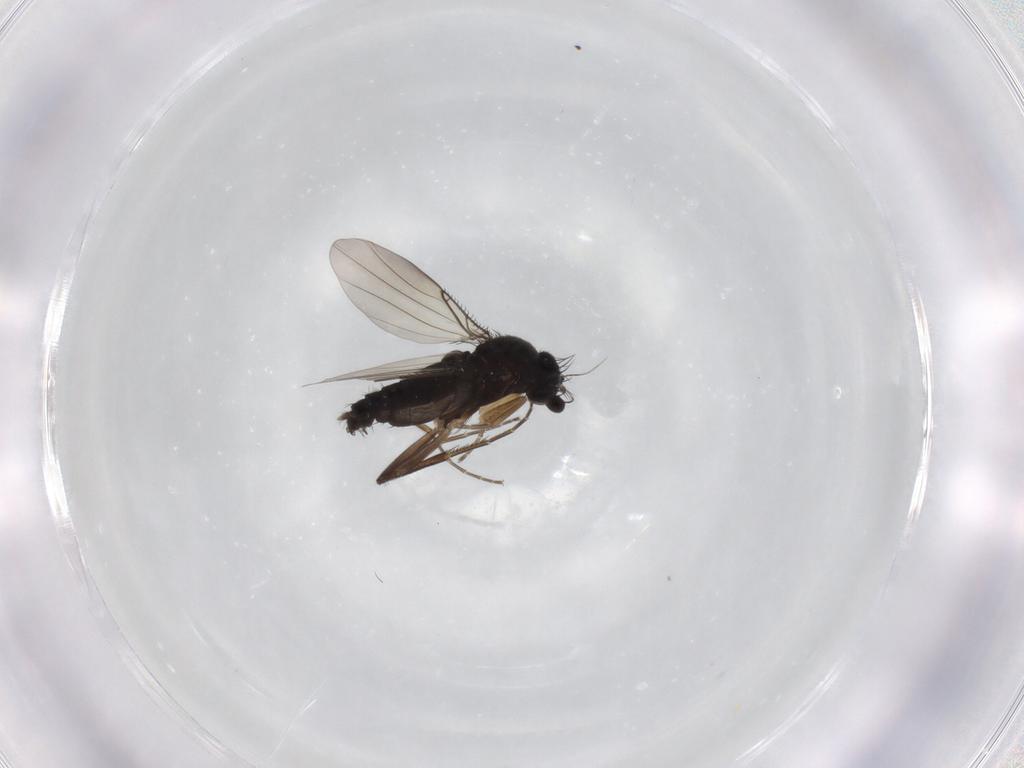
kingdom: Animalia
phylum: Arthropoda
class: Insecta
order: Diptera
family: Phoridae
